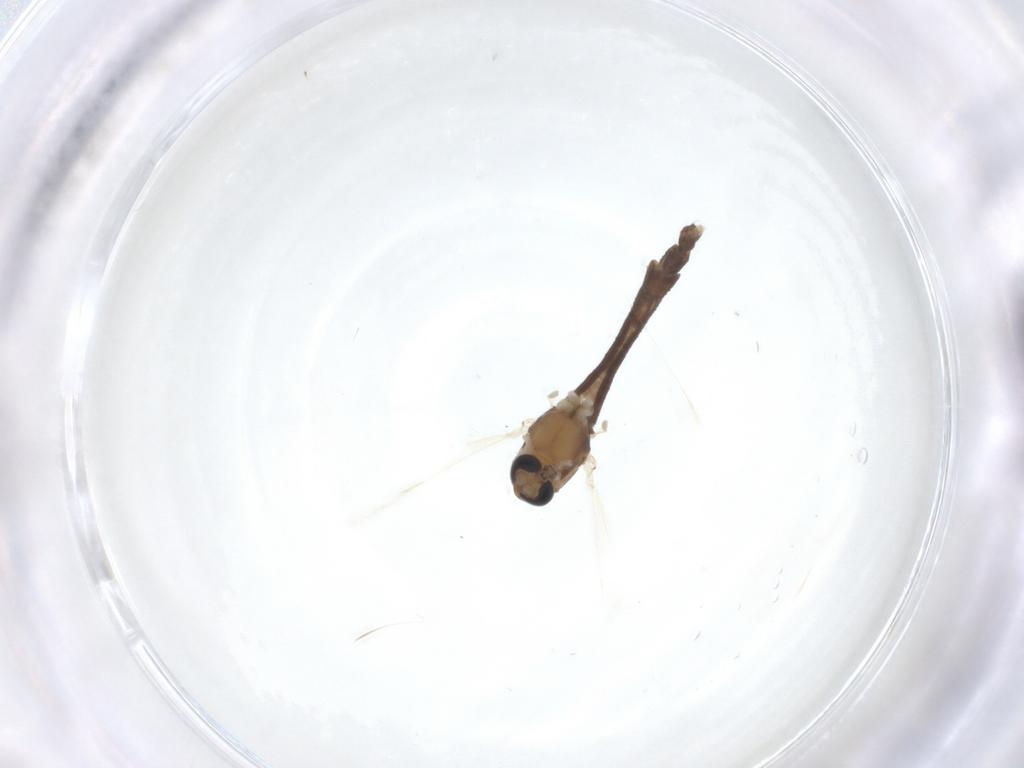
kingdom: Animalia
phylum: Arthropoda
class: Insecta
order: Diptera
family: Chironomidae
